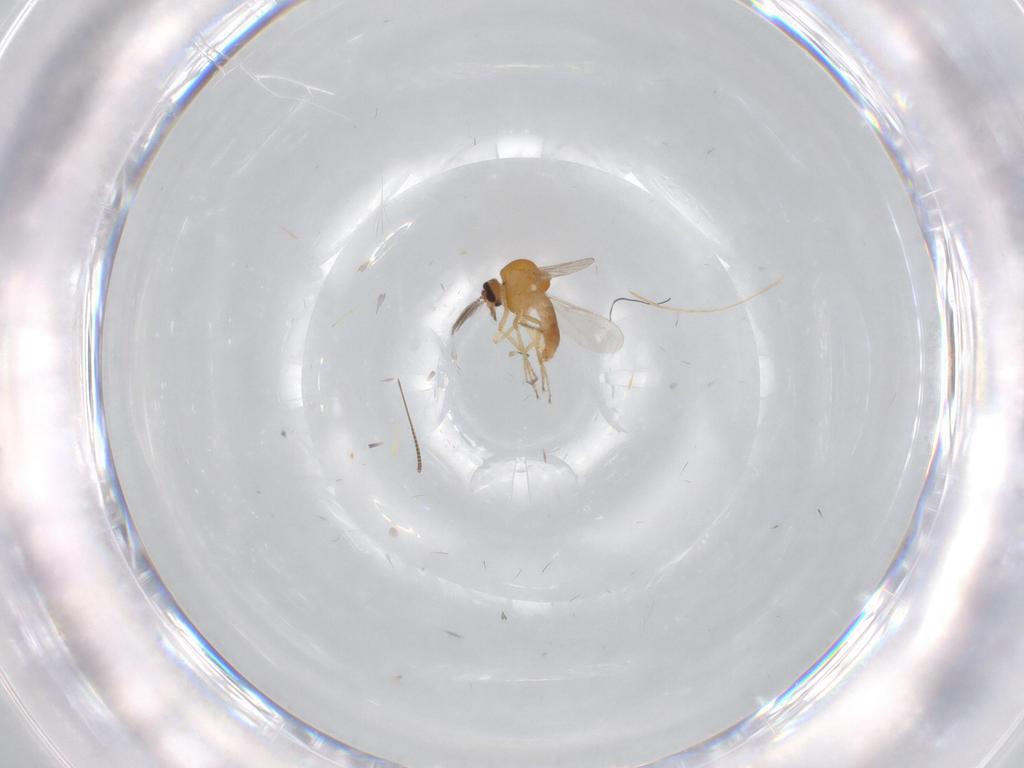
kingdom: Animalia
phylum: Arthropoda
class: Insecta
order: Diptera
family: Ceratopogonidae
